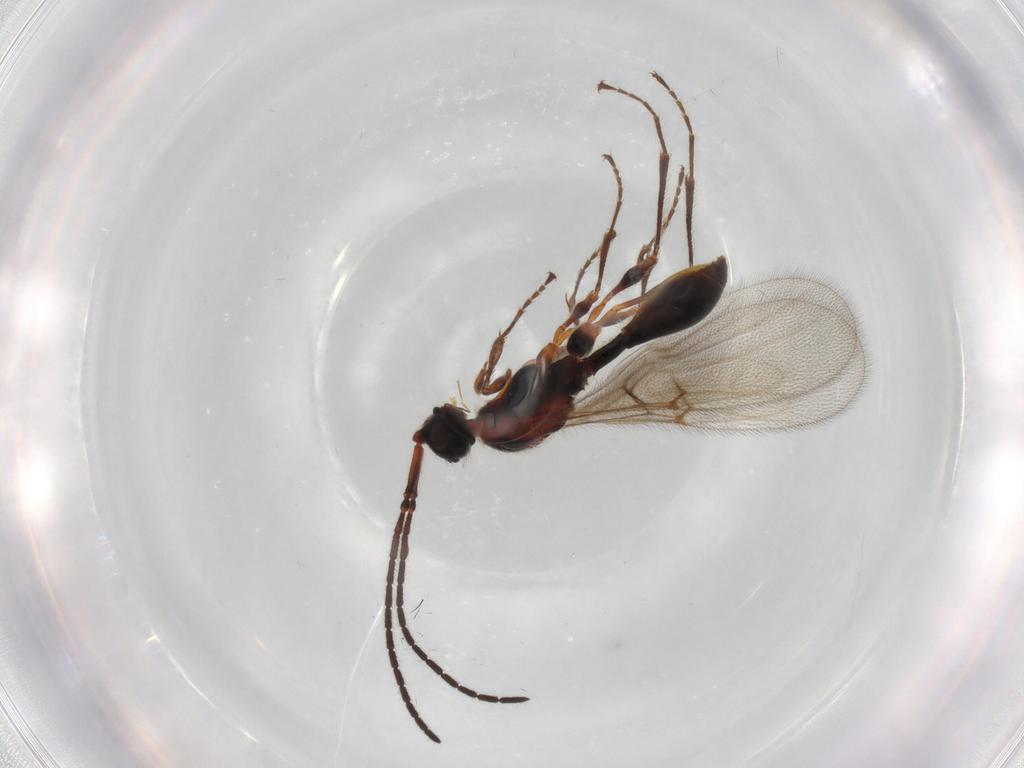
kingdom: Animalia
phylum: Arthropoda
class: Insecta
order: Hymenoptera
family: Diapriidae
